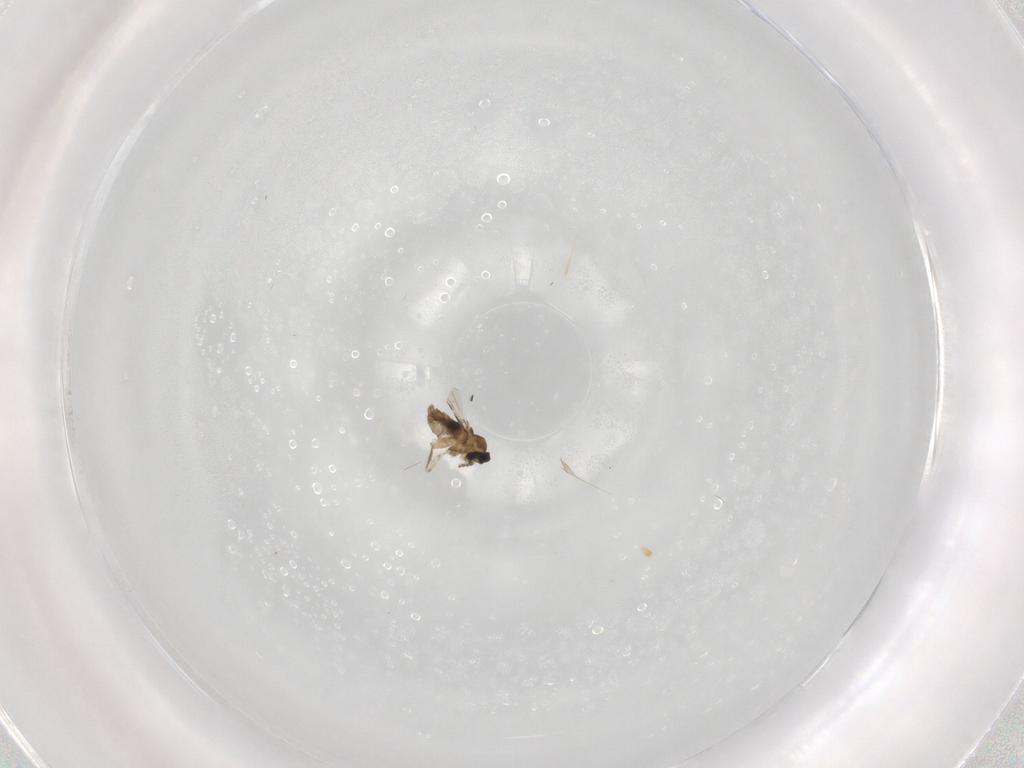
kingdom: Animalia
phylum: Arthropoda
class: Insecta
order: Diptera
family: Cecidomyiidae
